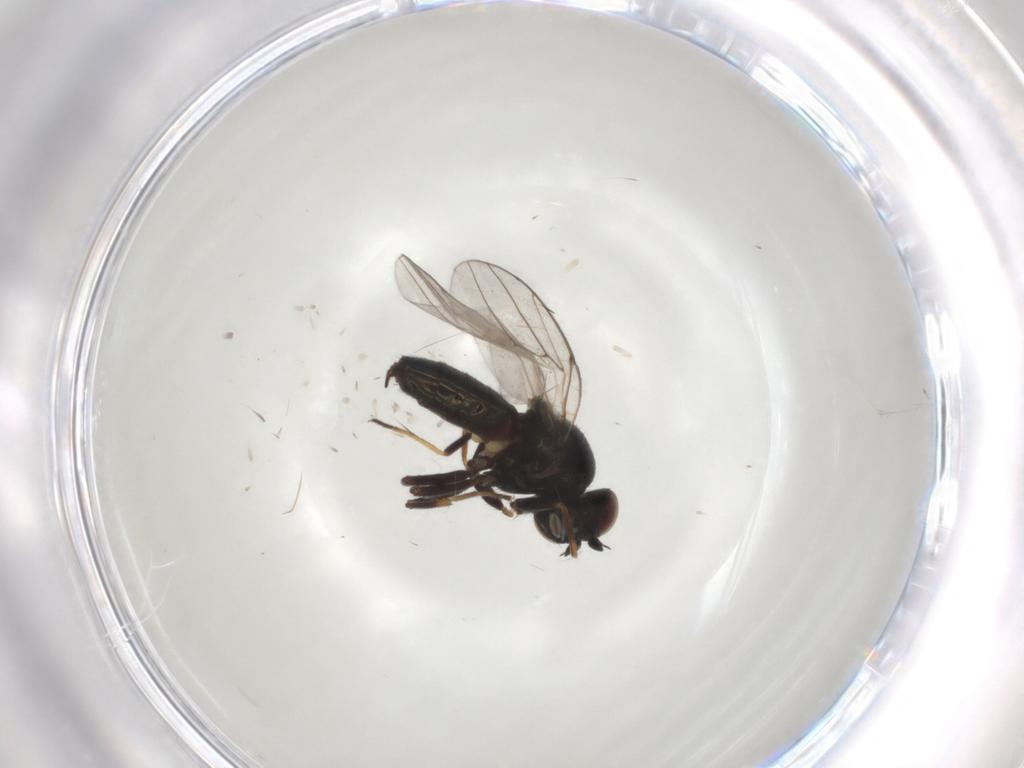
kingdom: Animalia
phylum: Arthropoda
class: Insecta
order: Diptera
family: Chloropidae
